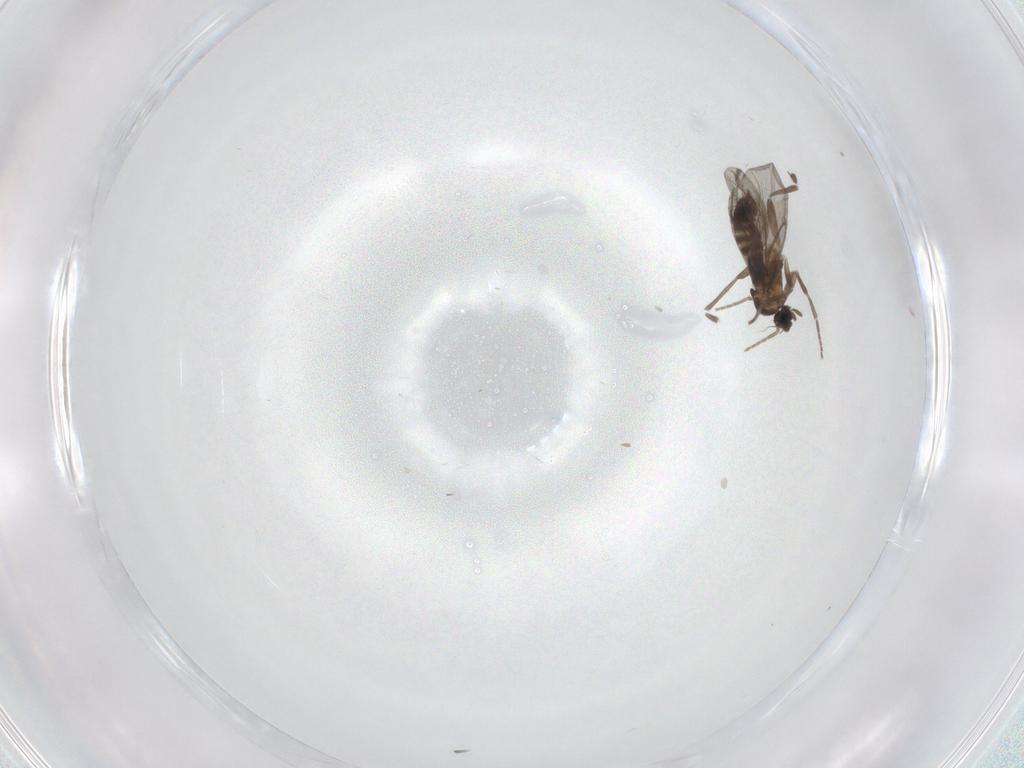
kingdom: Animalia
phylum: Arthropoda
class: Insecta
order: Diptera
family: Phoridae
